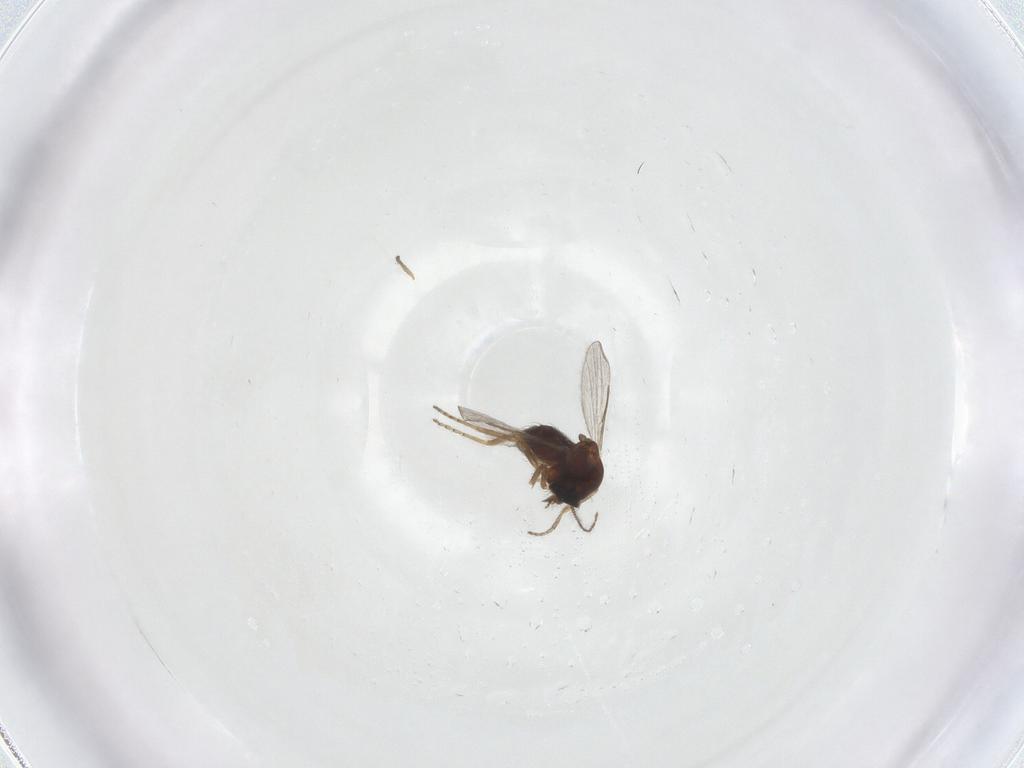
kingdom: Animalia
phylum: Arthropoda
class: Insecta
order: Diptera
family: Ceratopogonidae
